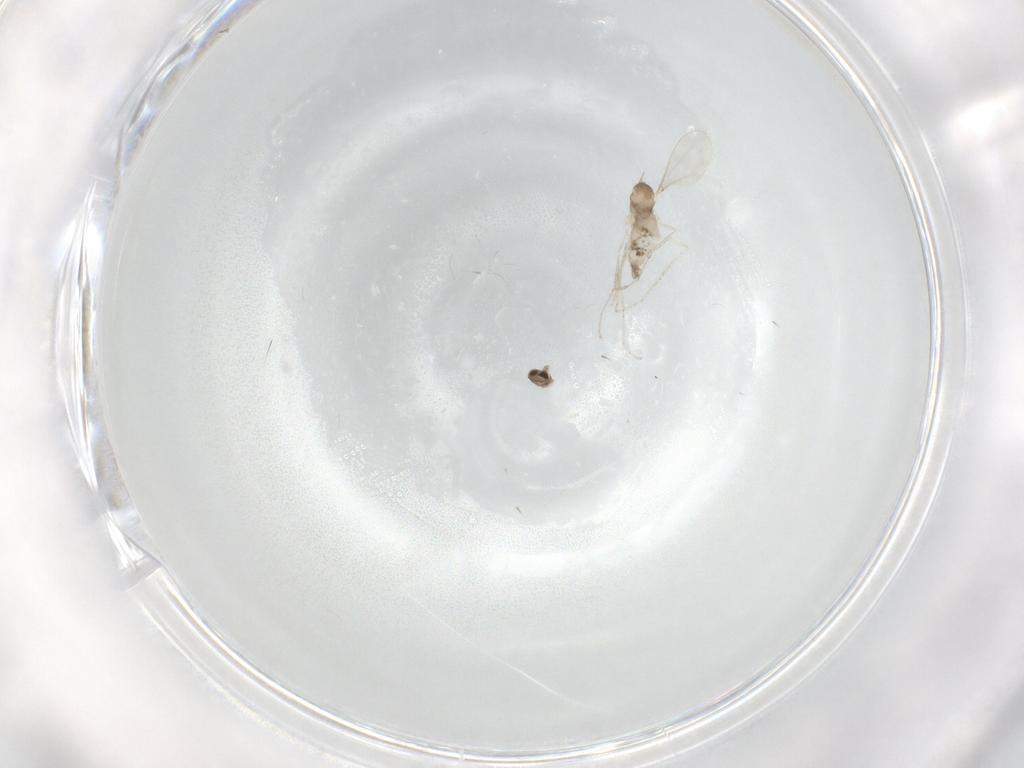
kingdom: Animalia
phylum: Arthropoda
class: Insecta
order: Diptera
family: Cecidomyiidae
